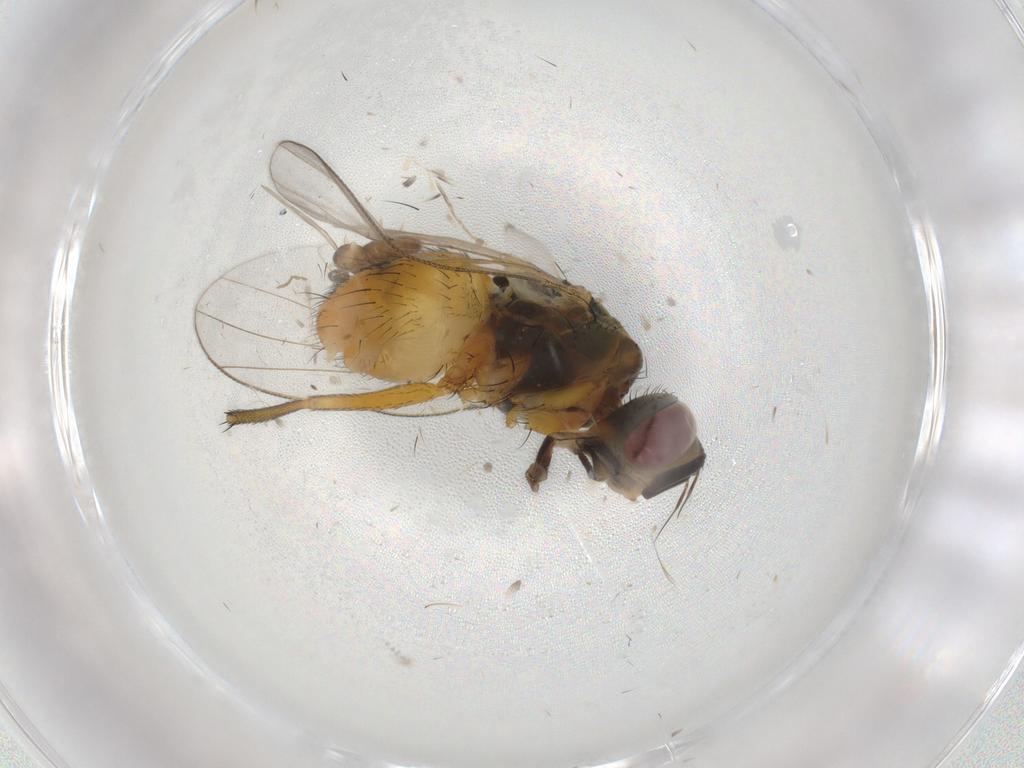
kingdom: Animalia
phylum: Arthropoda
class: Insecta
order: Diptera
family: Muscidae
